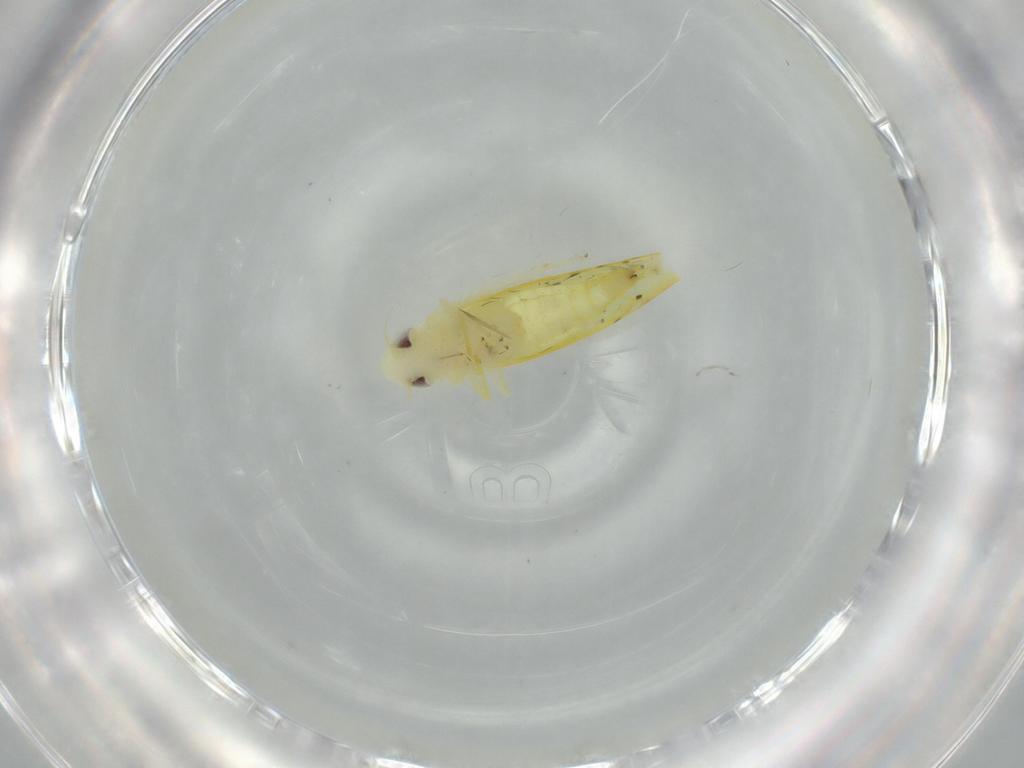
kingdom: Animalia
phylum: Arthropoda
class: Insecta
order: Hemiptera
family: Cicadellidae
